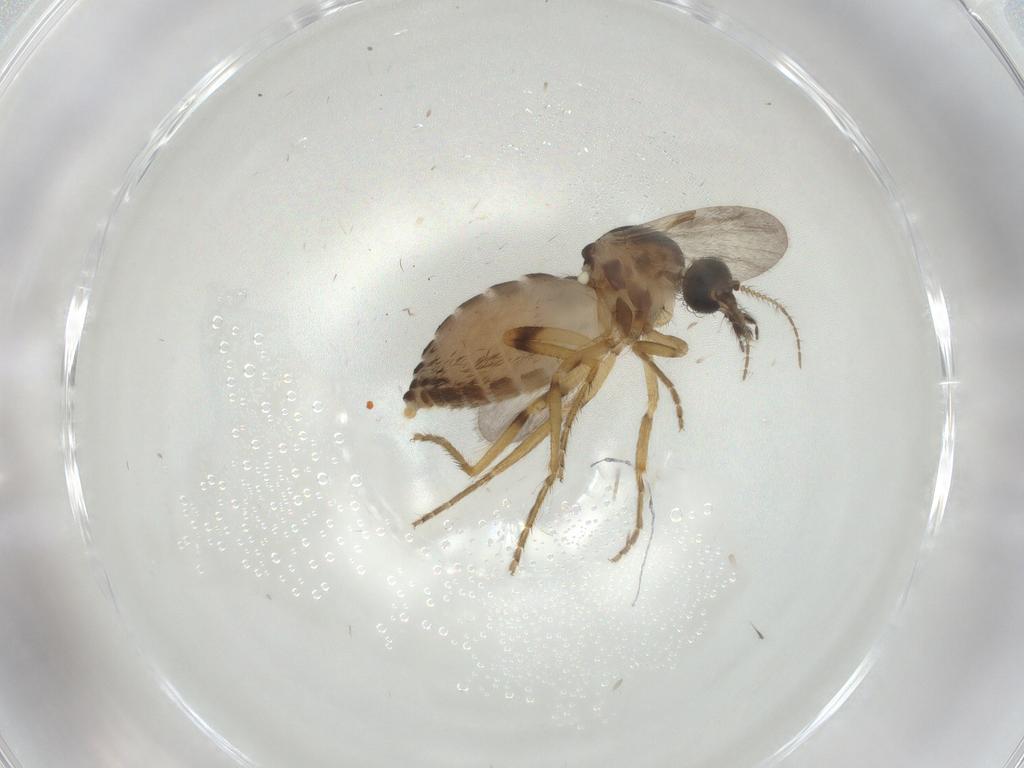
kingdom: Animalia
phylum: Arthropoda
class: Insecta
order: Diptera
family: Ceratopogonidae
